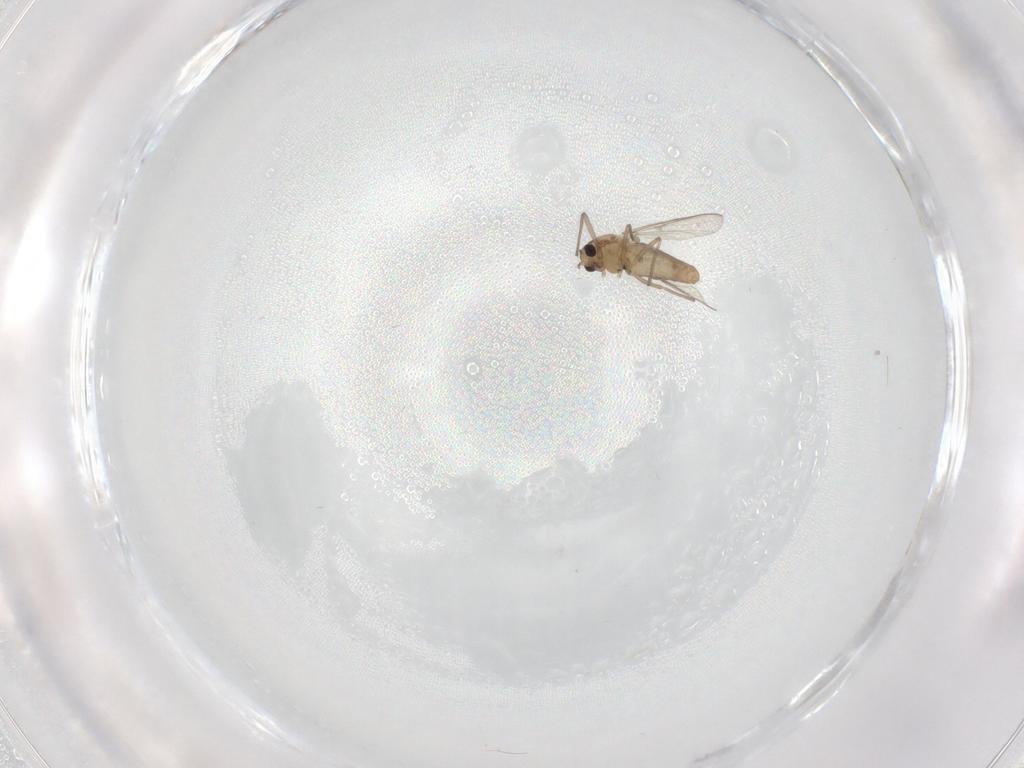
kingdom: Animalia
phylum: Arthropoda
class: Insecta
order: Diptera
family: Chironomidae
